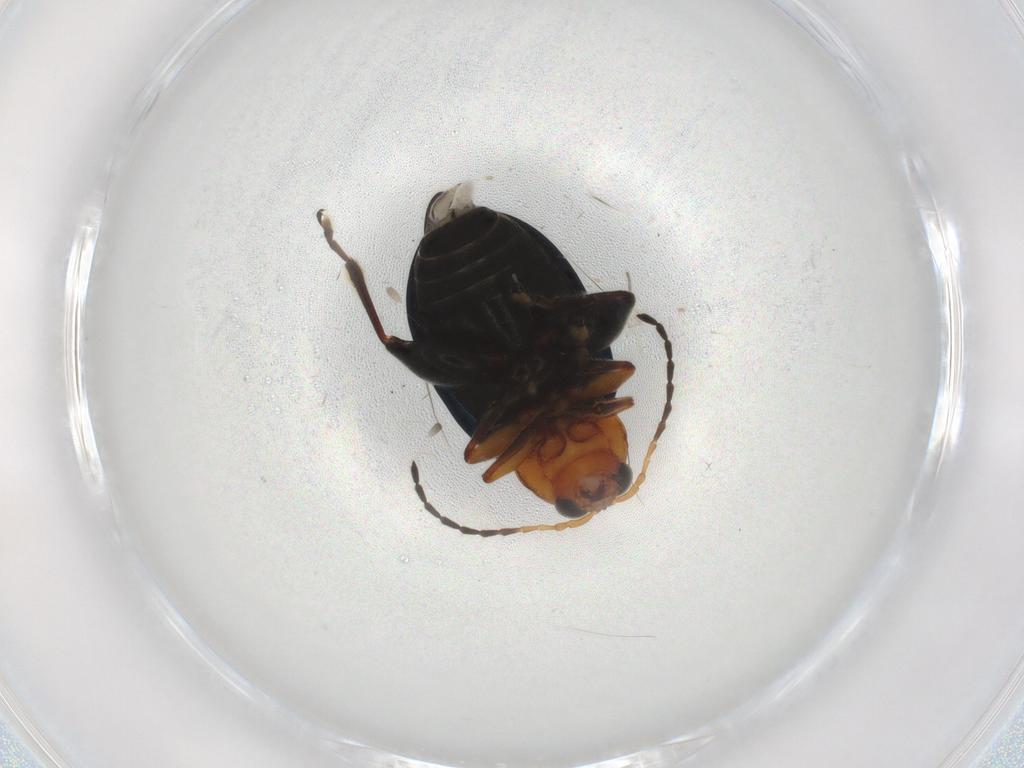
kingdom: Animalia
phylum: Arthropoda
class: Insecta
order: Coleoptera
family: Chrysomelidae
